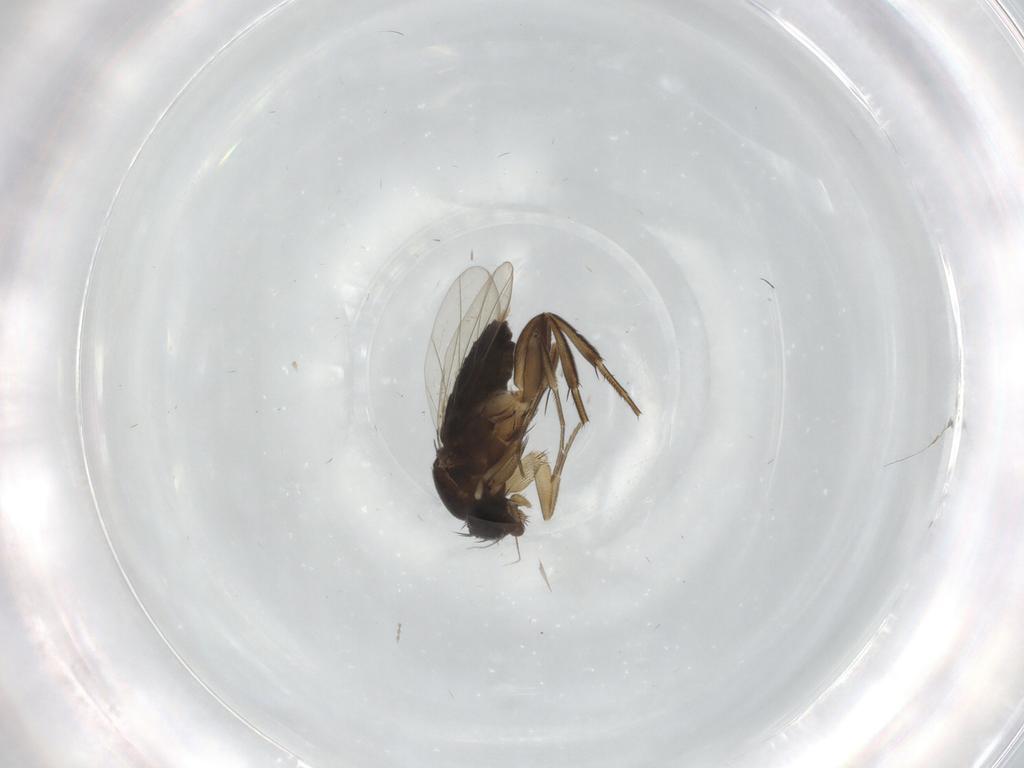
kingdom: Animalia
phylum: Arthropoda
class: Insecta
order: Diptera
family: Phoridae
